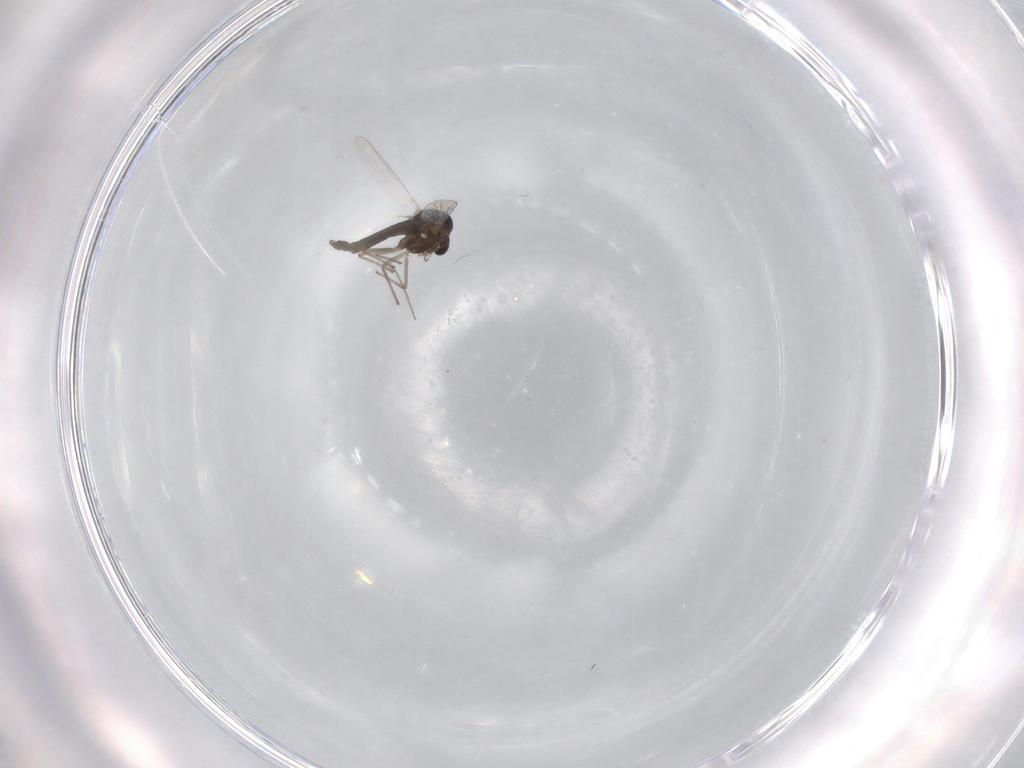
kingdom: Animalia
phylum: Arthropoda
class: Insecta
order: Diptera
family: Chironomidae
